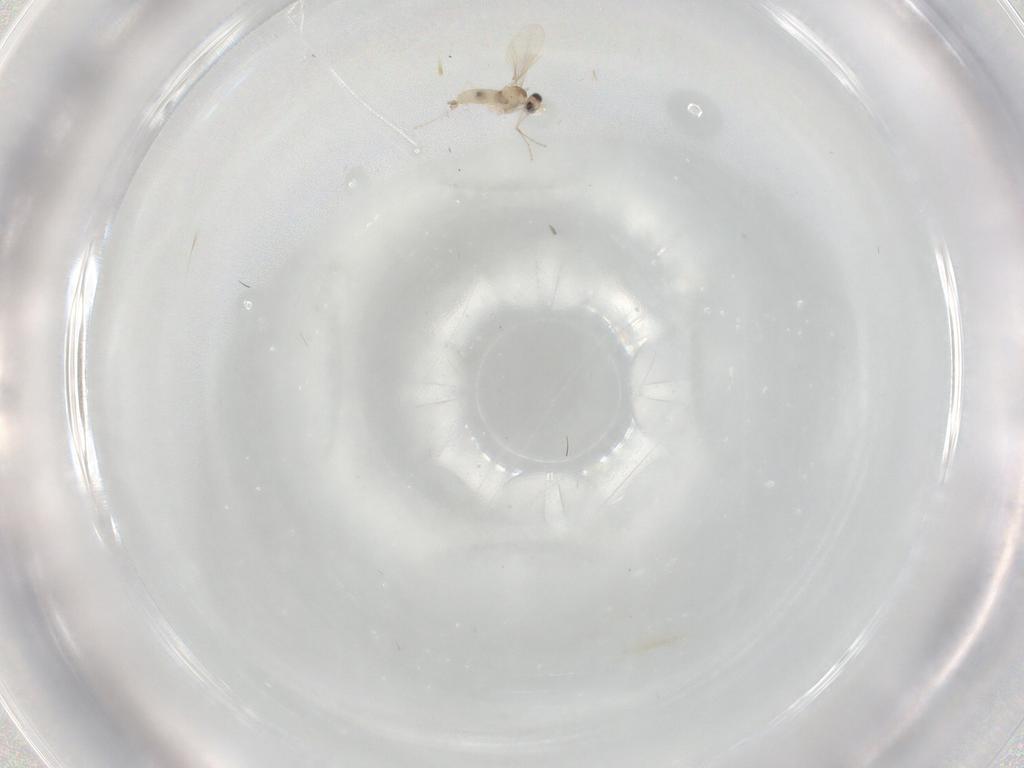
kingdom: Animalia
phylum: Arthropoda
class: Insecta
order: Diptera
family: Cecidomyiidae
